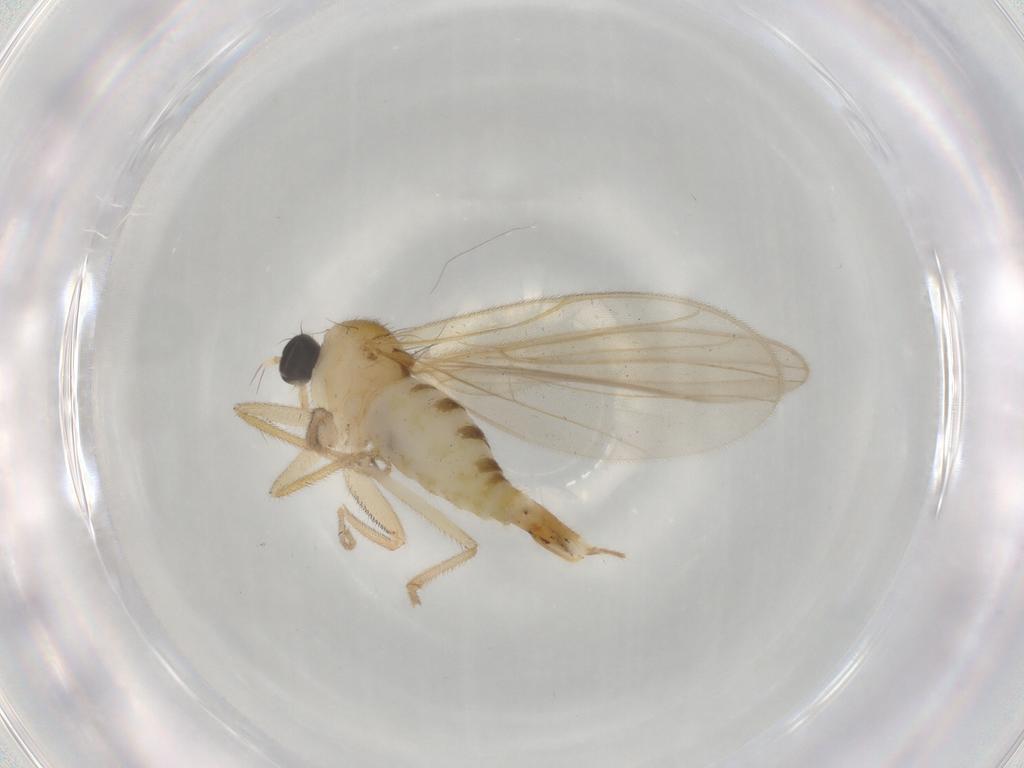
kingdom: Animalia
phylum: Arthropoda
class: Insecta
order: Diptera
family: Hybotidae
